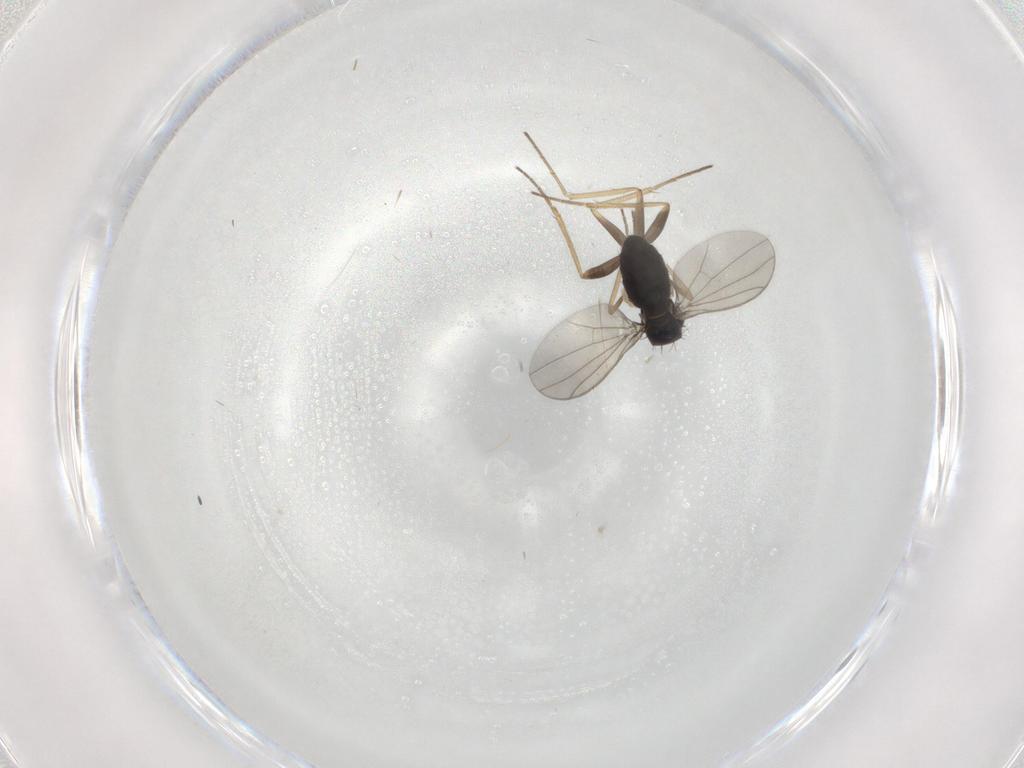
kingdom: Animalia
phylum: Arthropoda
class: Insecta
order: Diptera
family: Dolichopodidae
